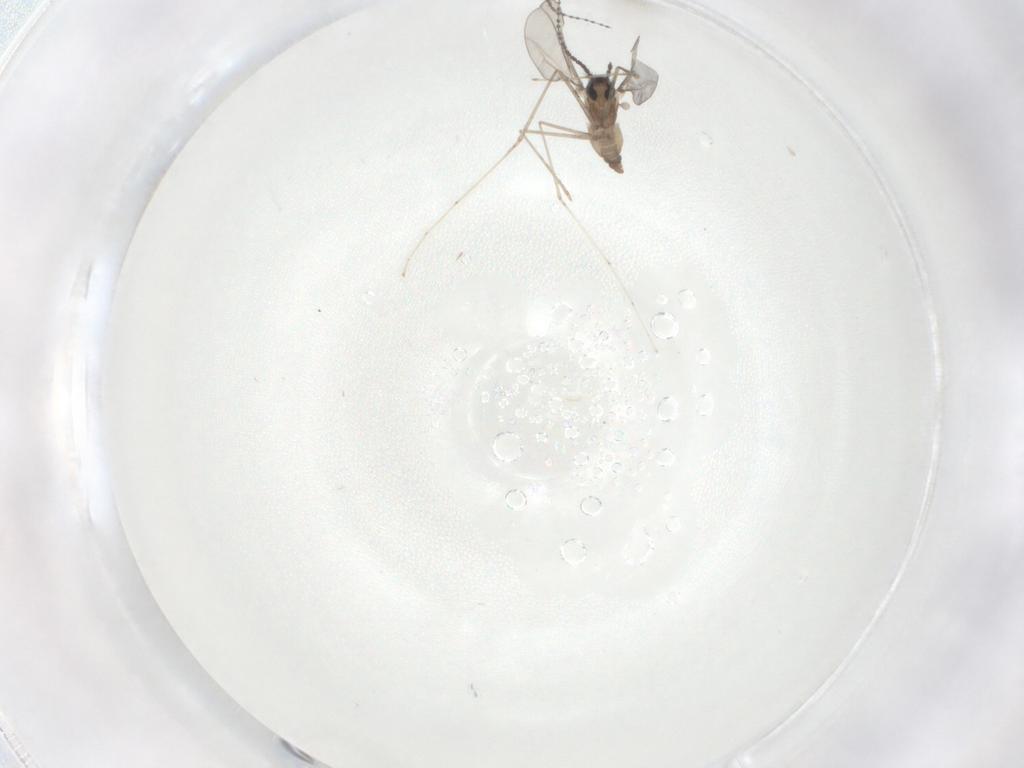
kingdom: Animalia
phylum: Arthropoda
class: Insecta
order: Diptera
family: Cecidomyiidae
